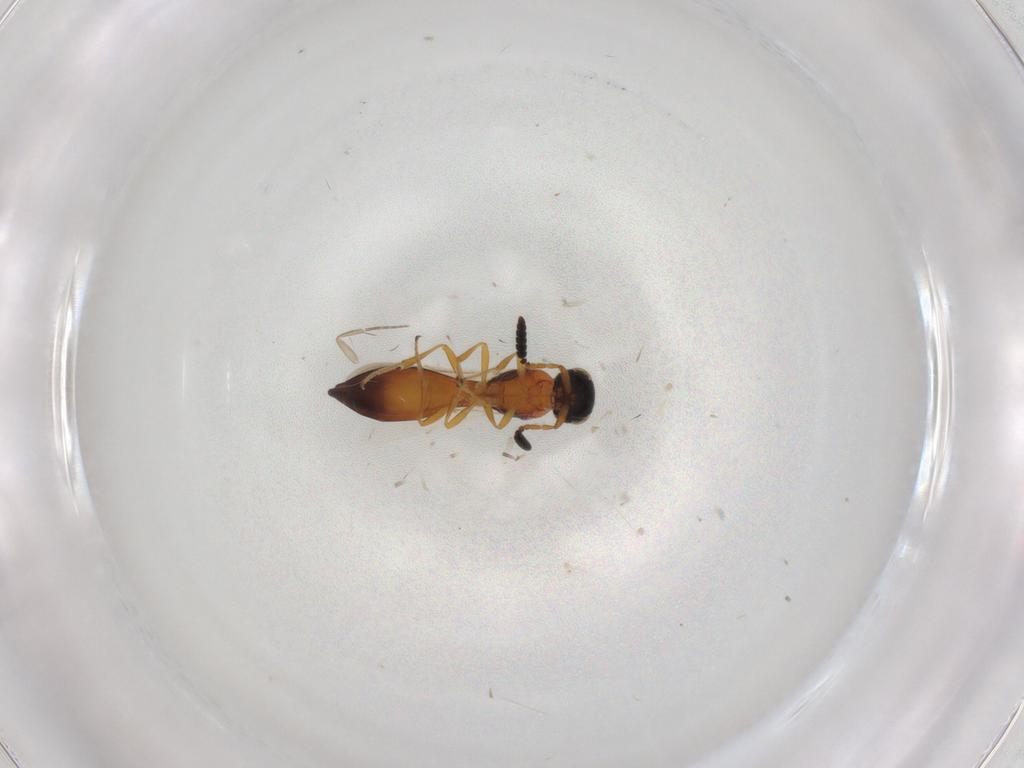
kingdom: Animalia
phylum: Arthropoda
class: Insecta
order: Hymenoptera
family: Scelionidae
